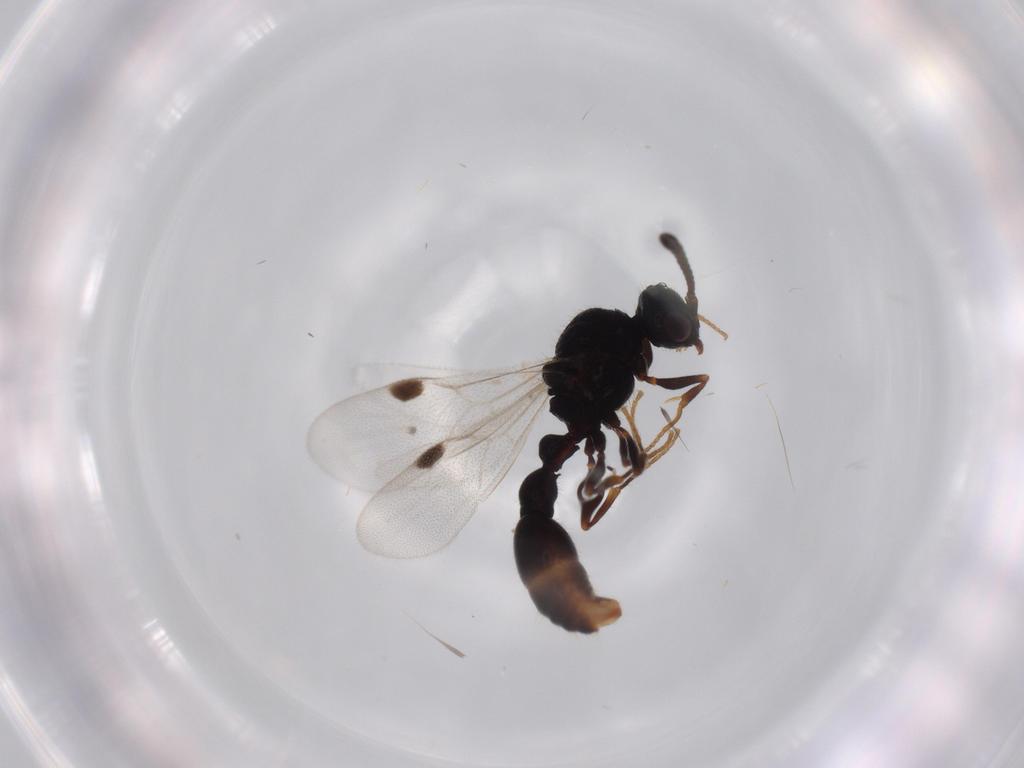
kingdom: Animalia
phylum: Arthropoda
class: Insecta
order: Hymenoptera
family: Formicidae
